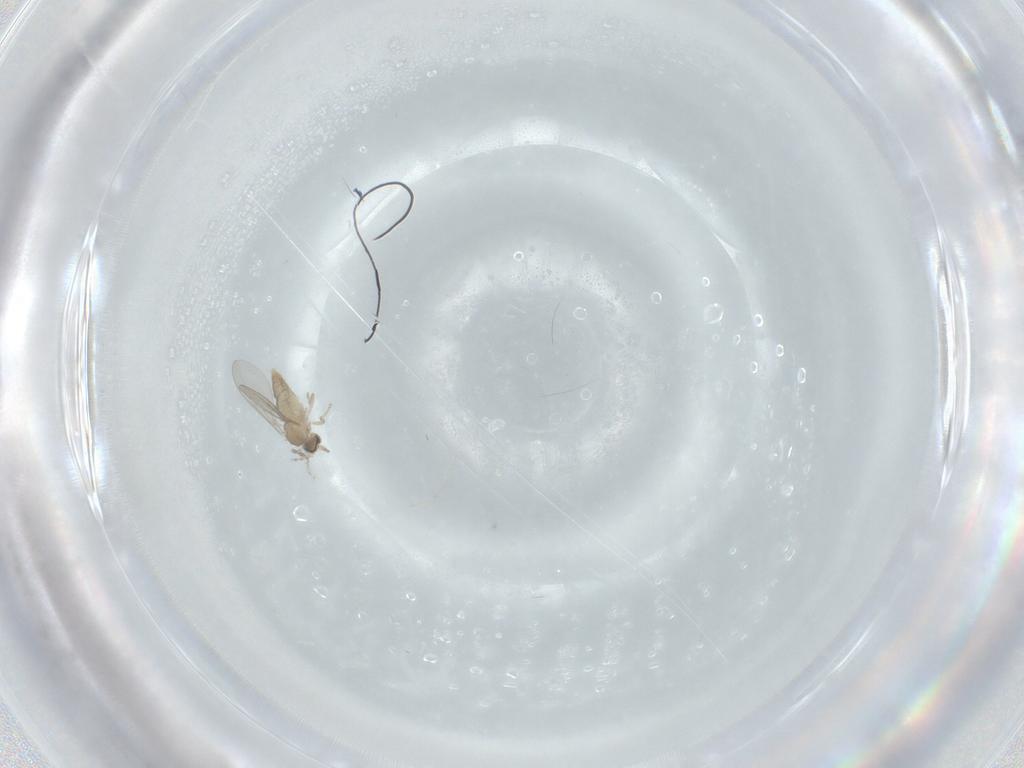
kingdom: Animalia
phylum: Arthropoda
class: Insecta
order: Diptera
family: Cecidomyiidae
